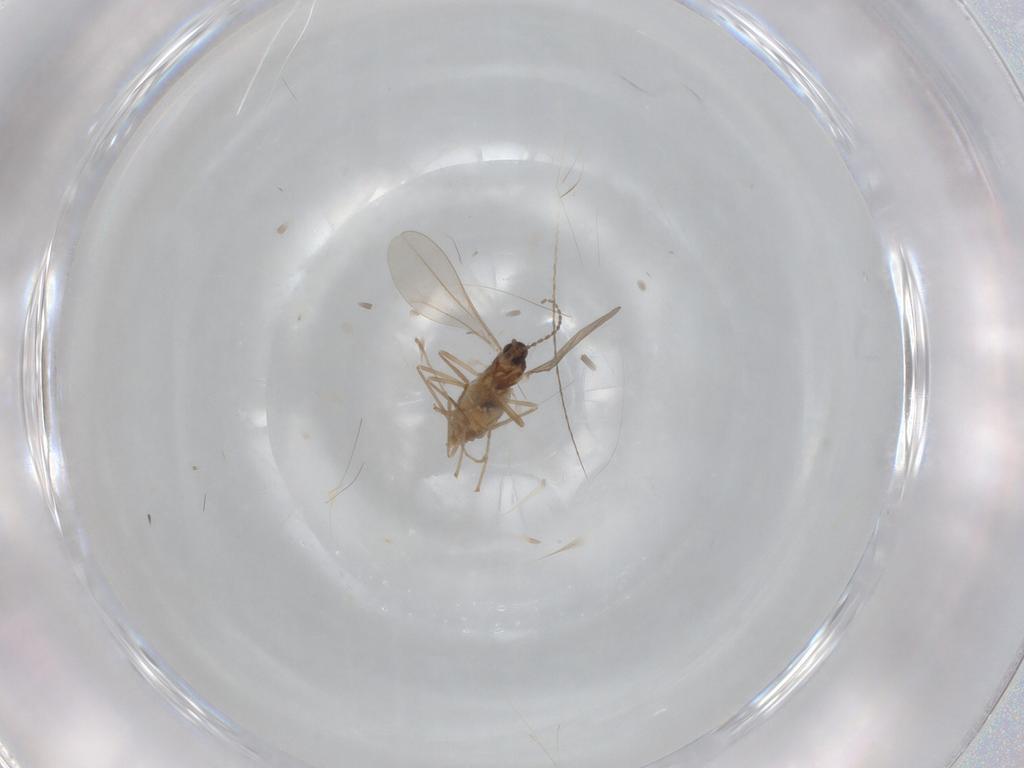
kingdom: Animalia
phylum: Arthropoda
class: Insecta
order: Diptera
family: Cecidomyiidae
